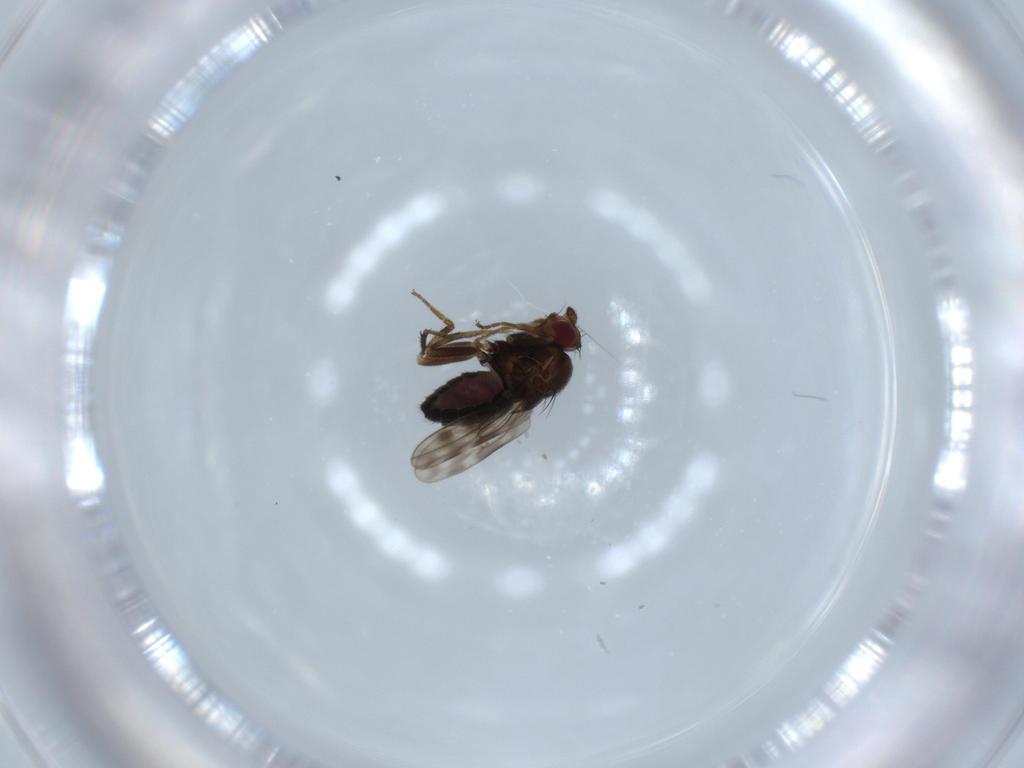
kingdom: Animalia
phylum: Arthropoda
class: Insecta
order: Diptera
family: Sphaeroceridae
